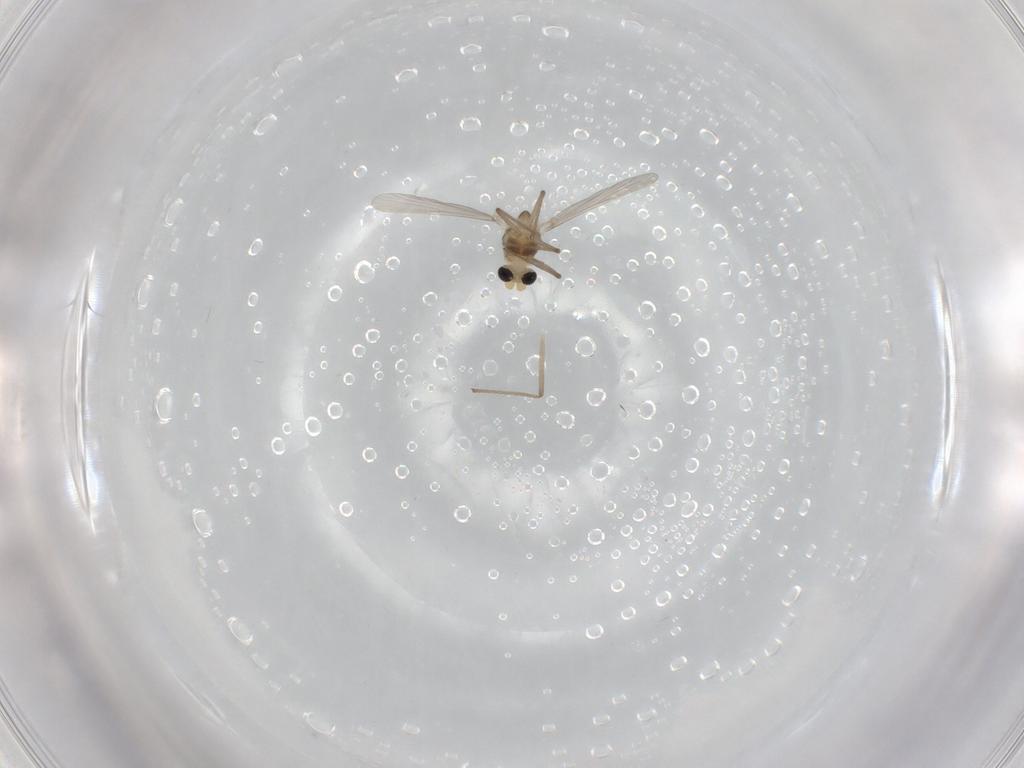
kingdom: Animalia
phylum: Arthropoda
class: Insecta
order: Diptera
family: Chironomidae
